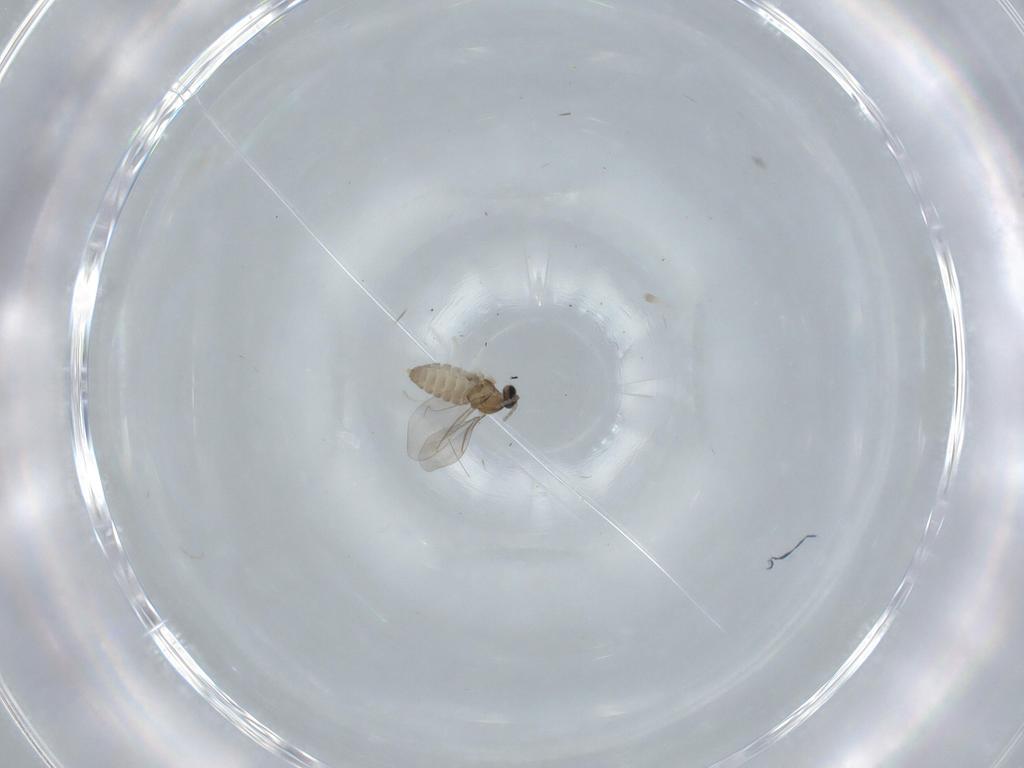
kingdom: Animalia
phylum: Arthropoda
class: Insecta
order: Diptera
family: Cecidomyiidae
